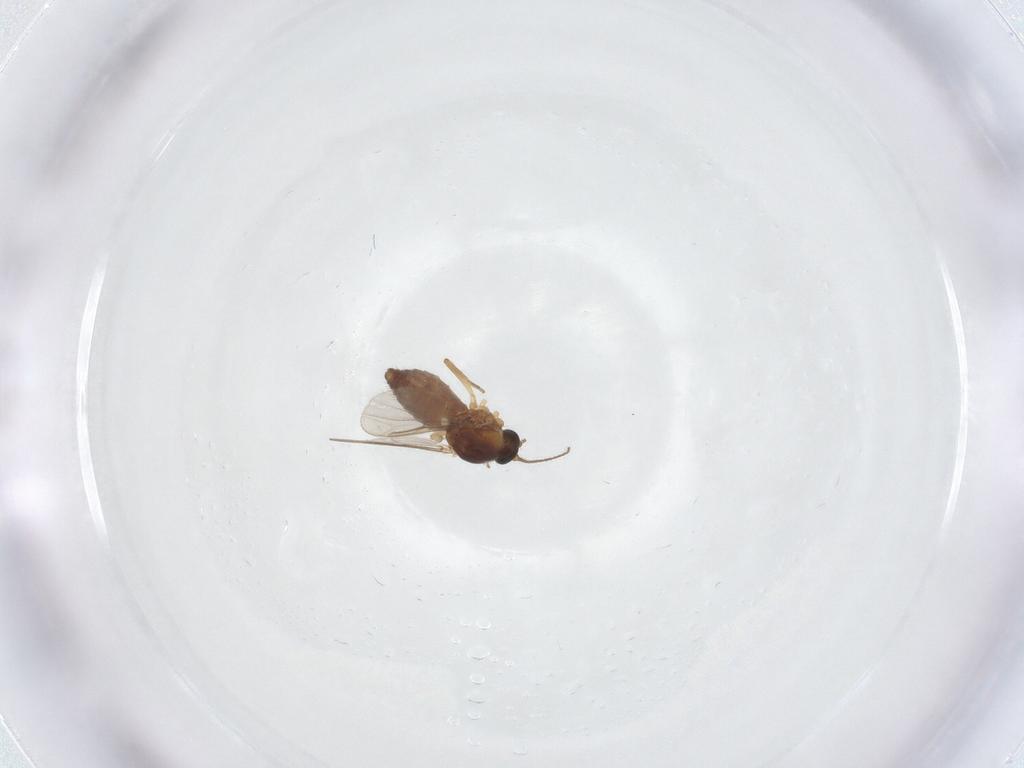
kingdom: Animalia
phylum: Arthropoda
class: Insecta
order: Diptera
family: Ceratopogonidae
